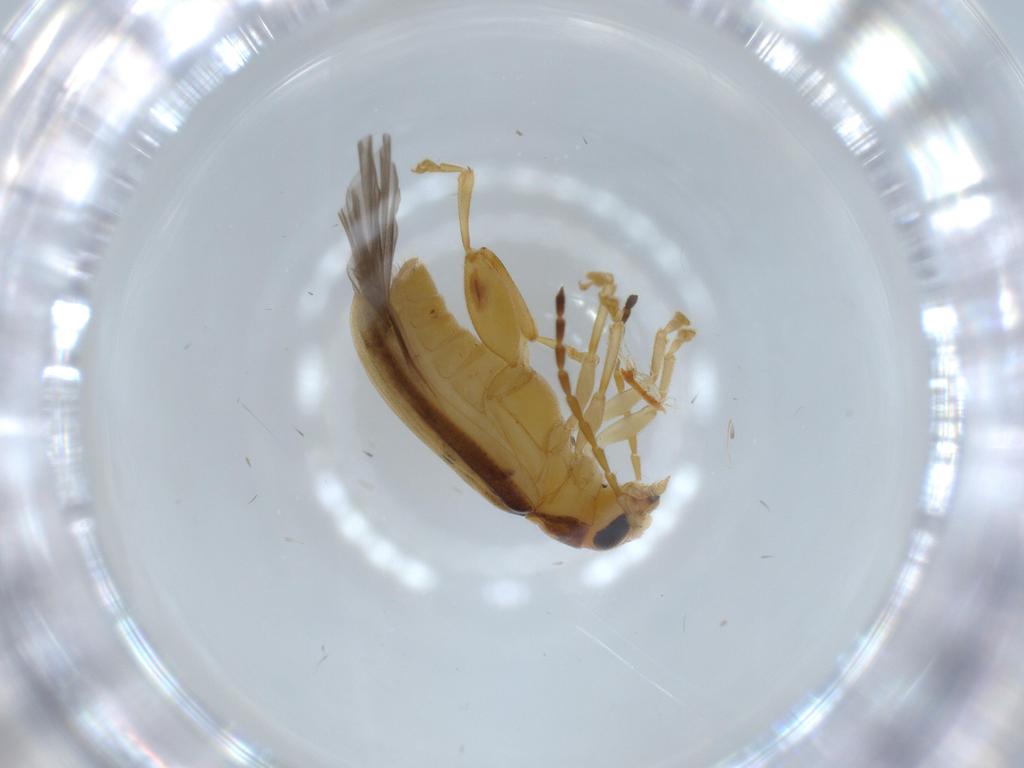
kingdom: Animalia
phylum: Arthropoda
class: Insecta
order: Coleoptera
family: Chrysomelidae
